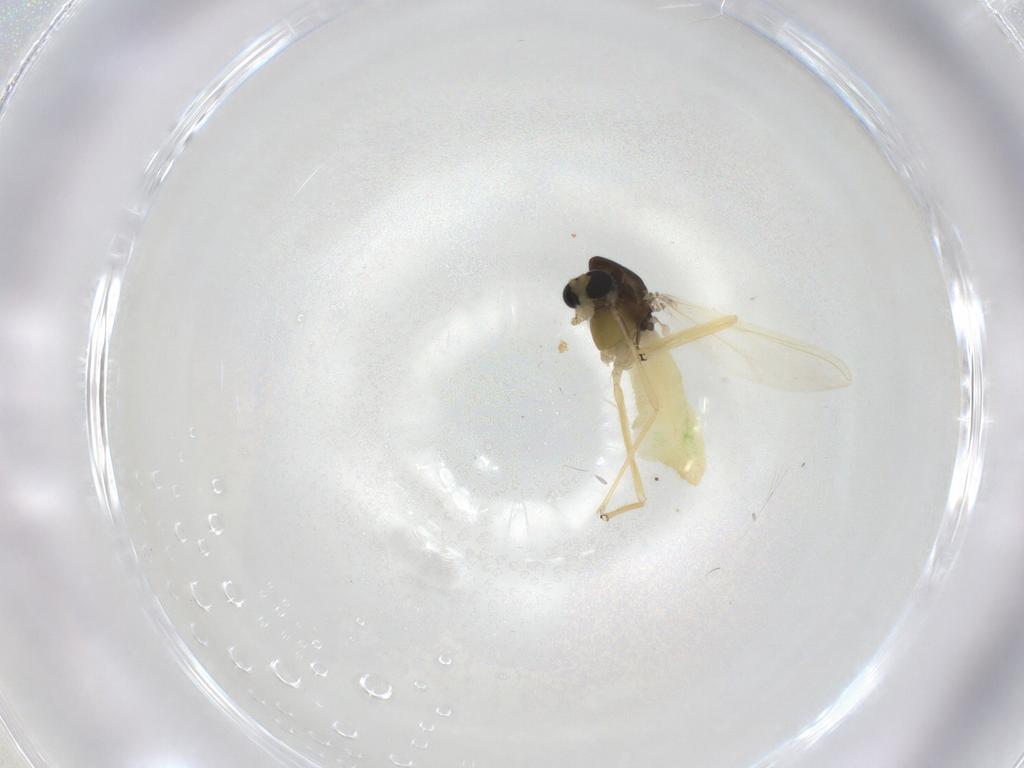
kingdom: Animalia
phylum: Arthropoda
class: Insecta
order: Diptera
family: Chironomidae
